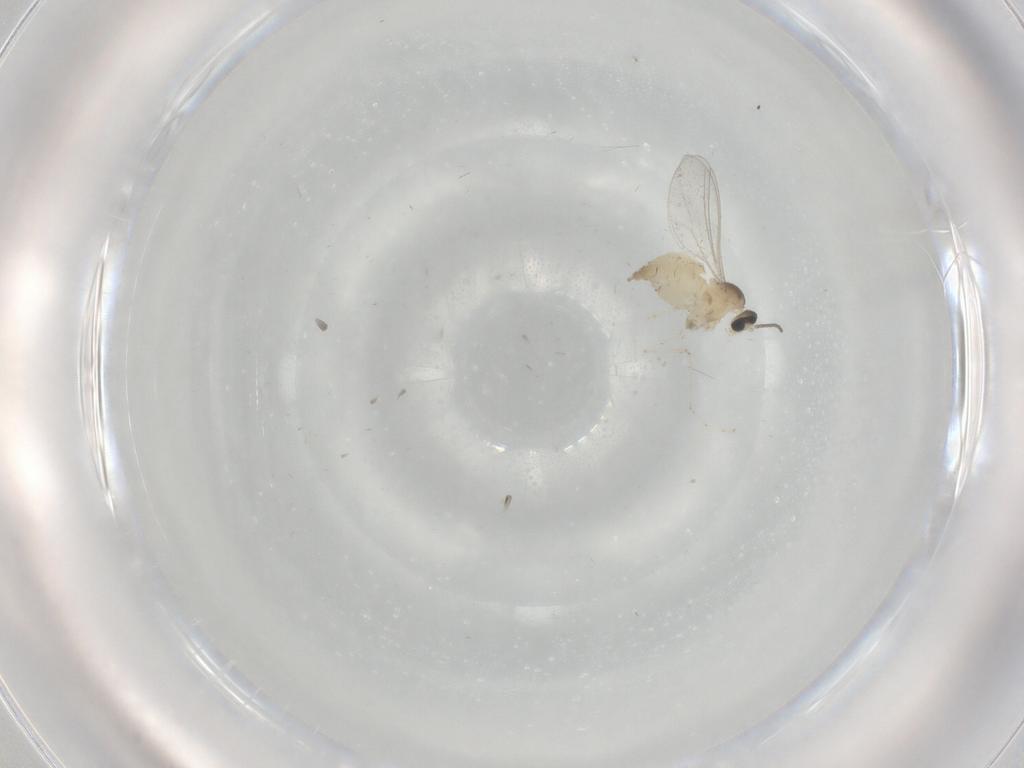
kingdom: Animalia
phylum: Arthropoda
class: Insecta
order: Diptera
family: Cecidomyiidae
